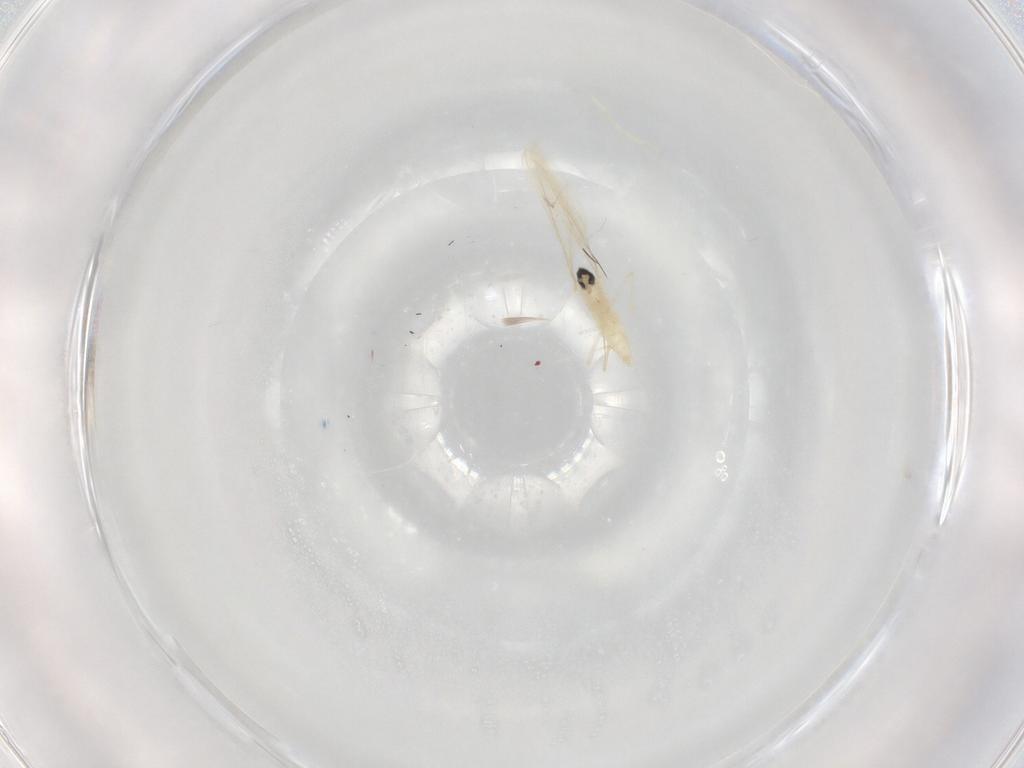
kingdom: Animalia
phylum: Arthropoda
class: Insecta
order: Diptera
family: Cecidomyiidae
